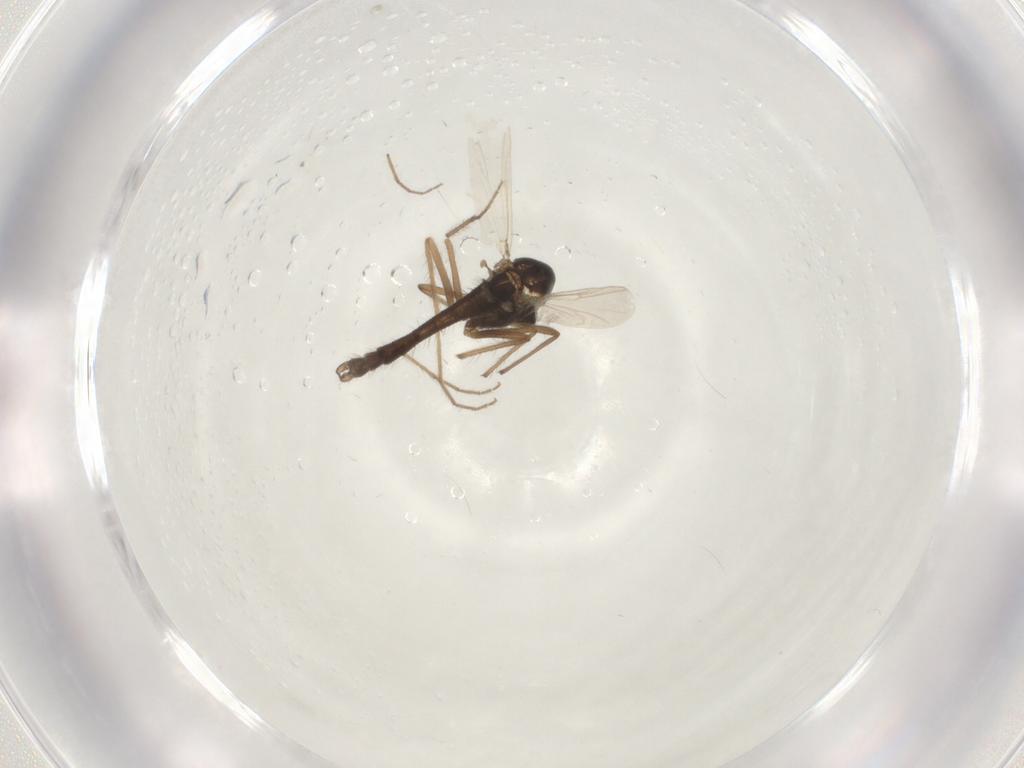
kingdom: Animalia
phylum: Arthropoda
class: Insecta
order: Diptera
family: Chironomidae
